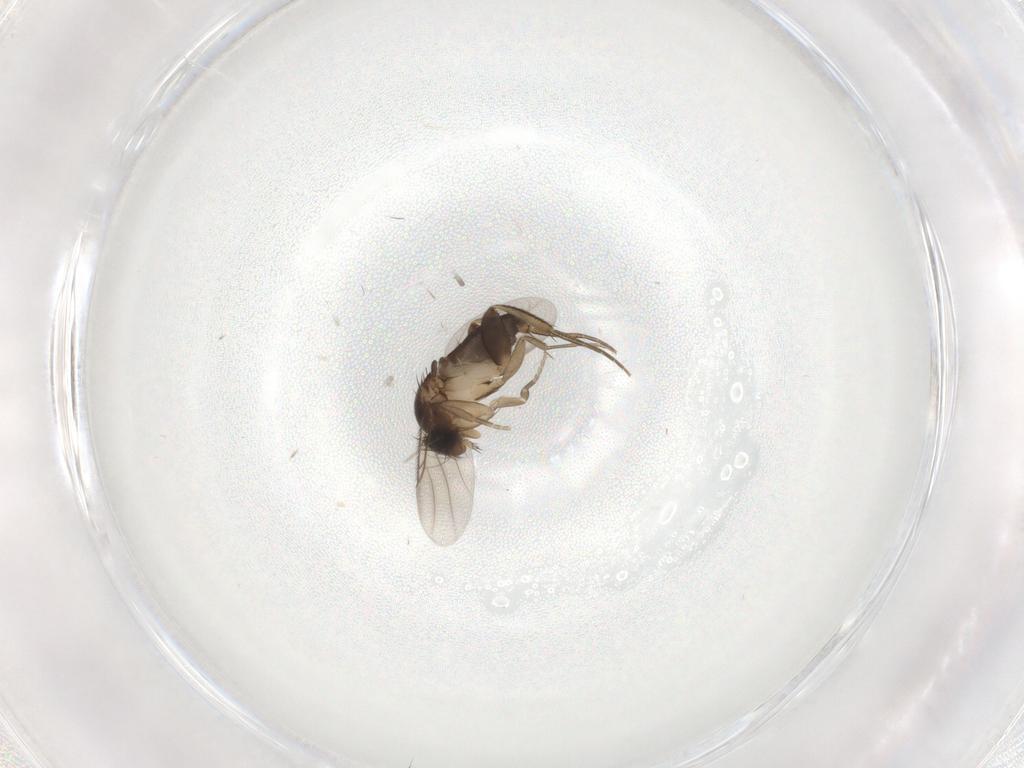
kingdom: Animalia
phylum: Arthropoda
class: Insecta
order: Diptera
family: Phoridae
